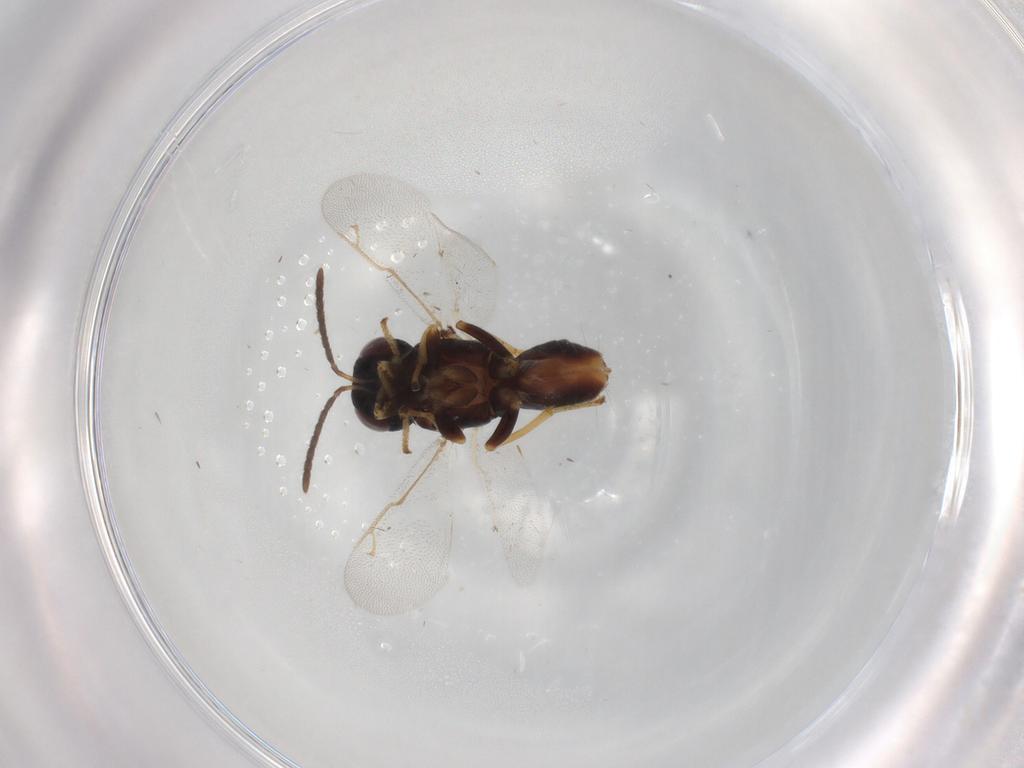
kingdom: Animalia
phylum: Arthropoda
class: Insecta
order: Hymenoptera
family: Tanaostigmatidae
